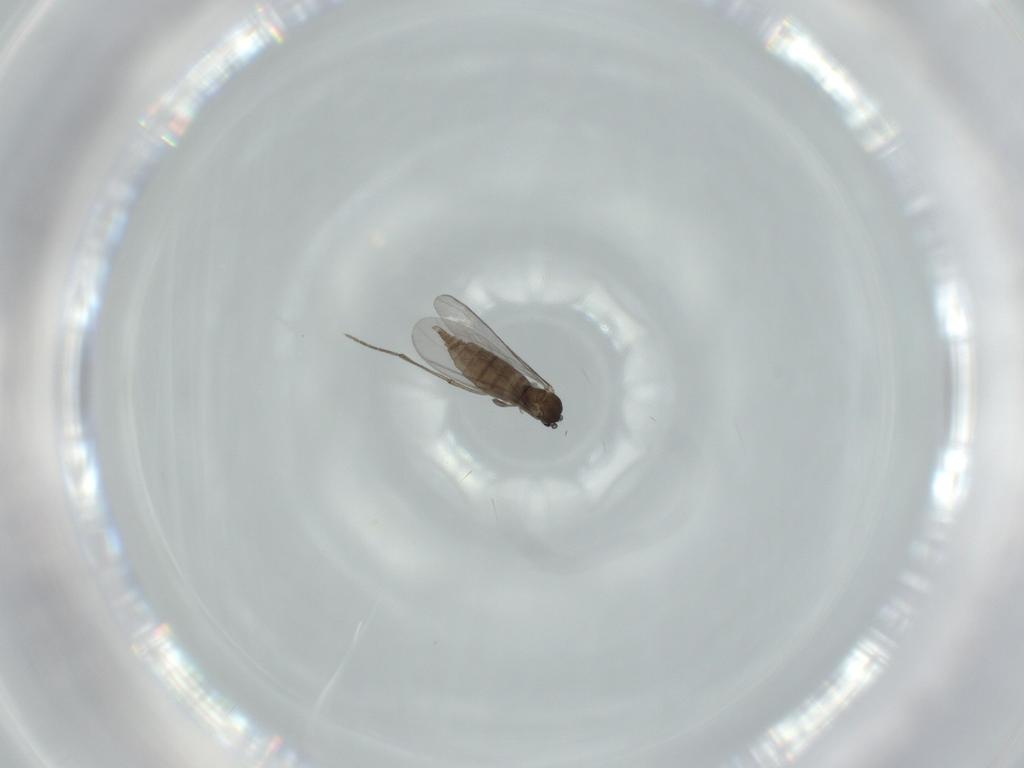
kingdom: Animalia
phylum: Arthropoda
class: Insecta
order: Diptera
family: Sciaridae
